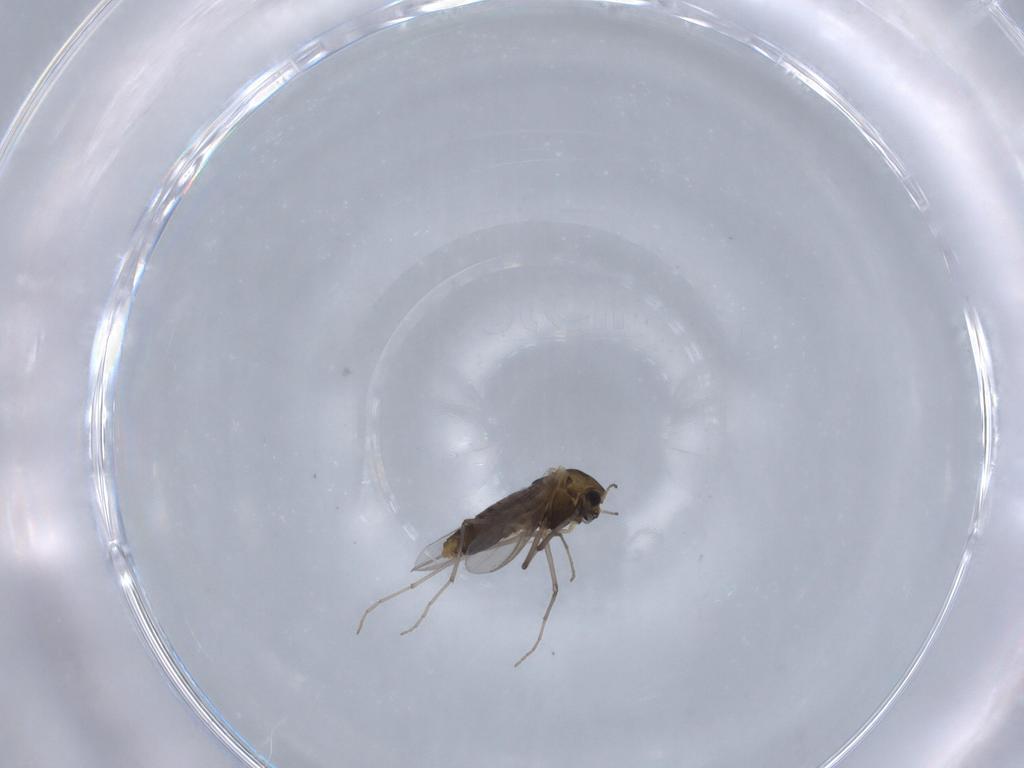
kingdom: Animalia
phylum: Arthropoda
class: Insecta
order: Diptera
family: Chironomidae
